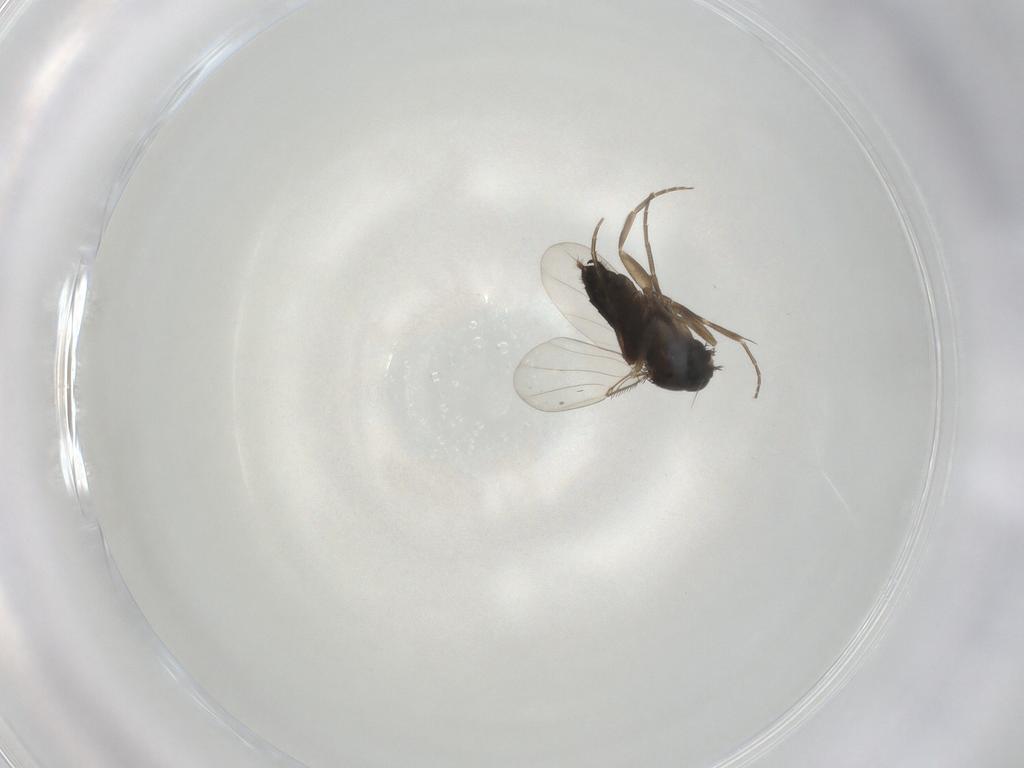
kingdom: Animalia
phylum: Arthropoda
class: Insecta
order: Diptera
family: Phoridae
